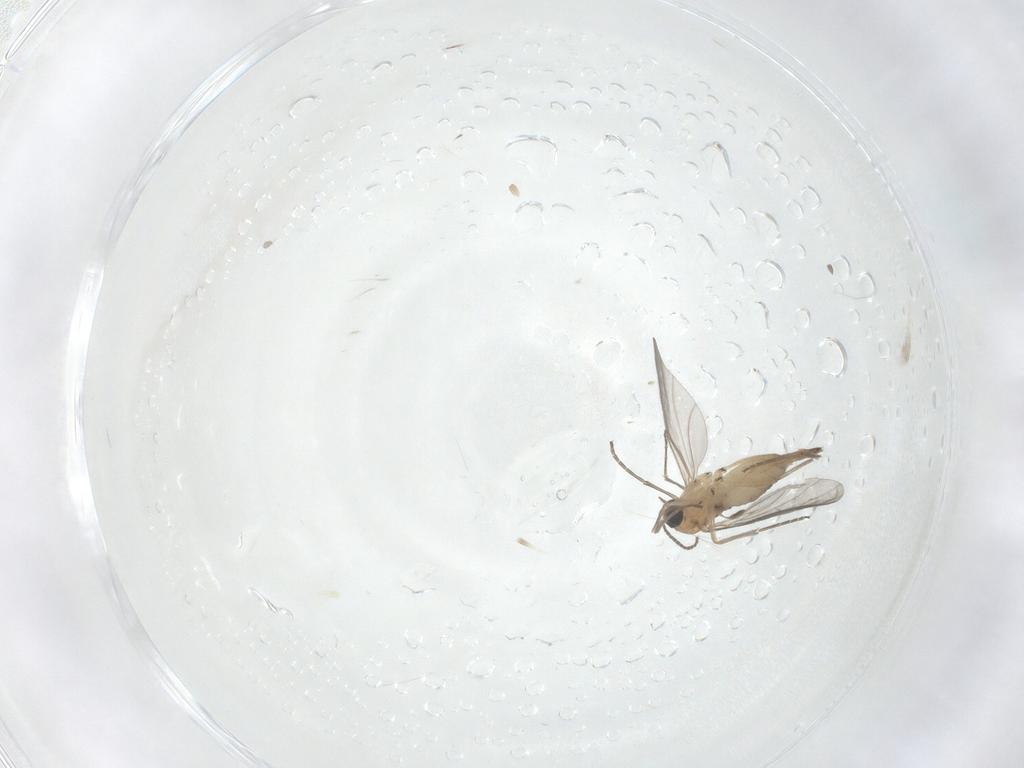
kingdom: Animalia
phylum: Arthropoda
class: Insecta
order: Diptera
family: Sciaridae
